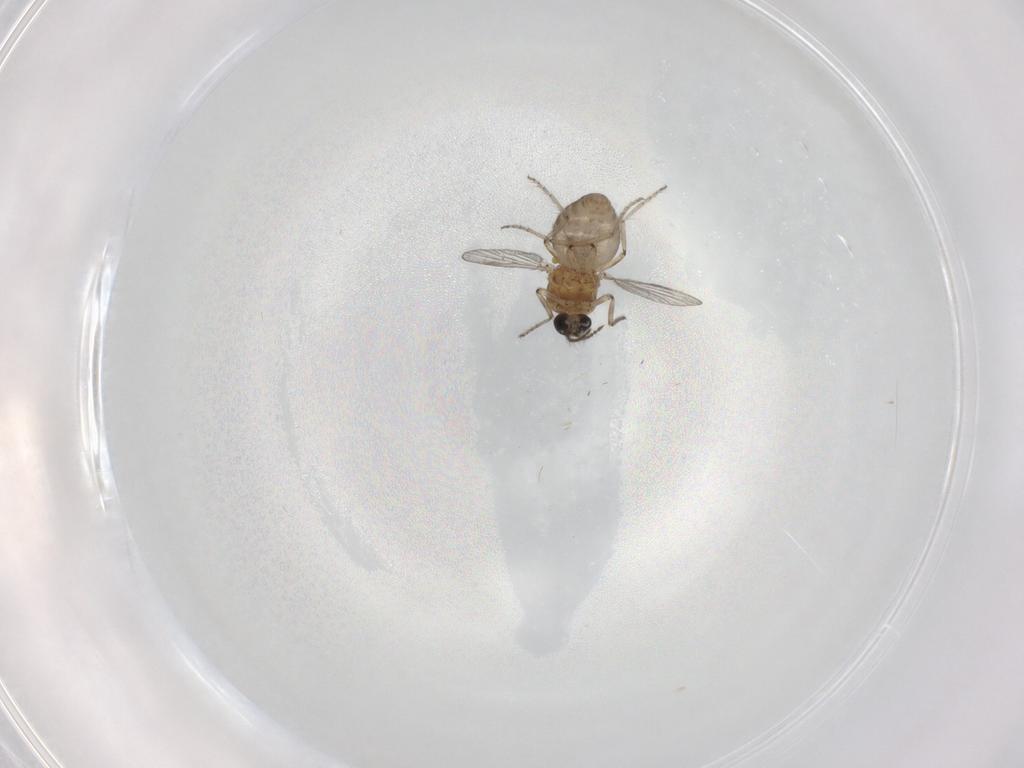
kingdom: Animalia
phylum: Arthropoda
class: Insecta
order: Diptera
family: Ceratopogonidae
